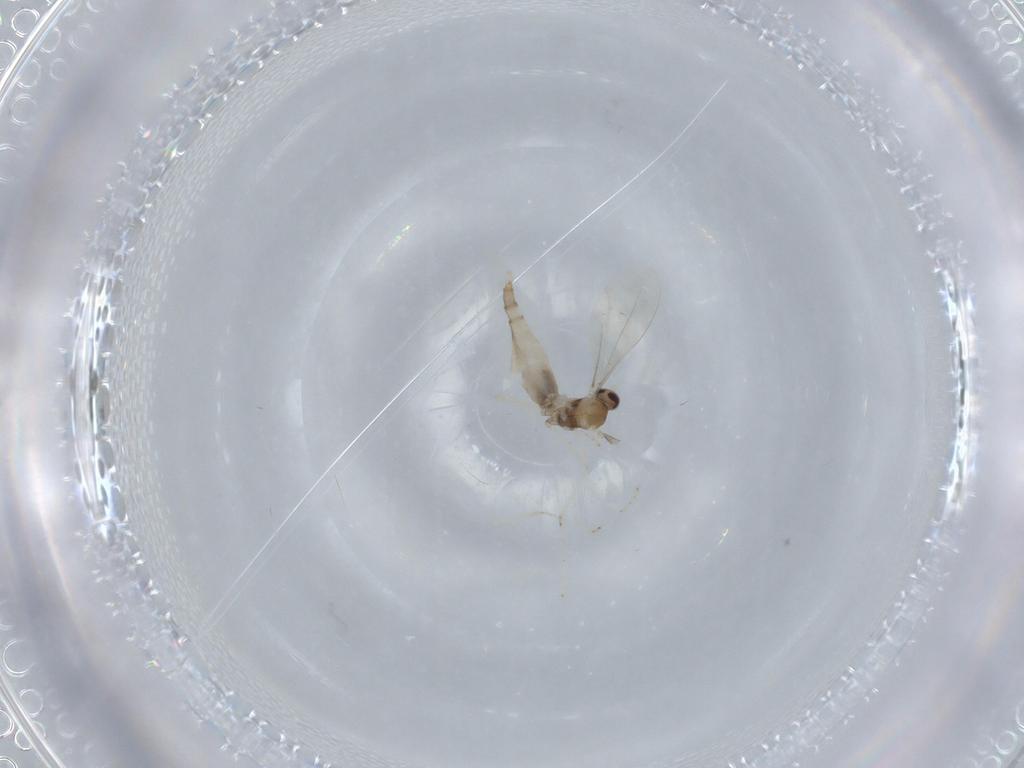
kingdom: Animalia
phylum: Arthropoda
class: Insecta
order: Diptera
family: Cecidomyiidae
